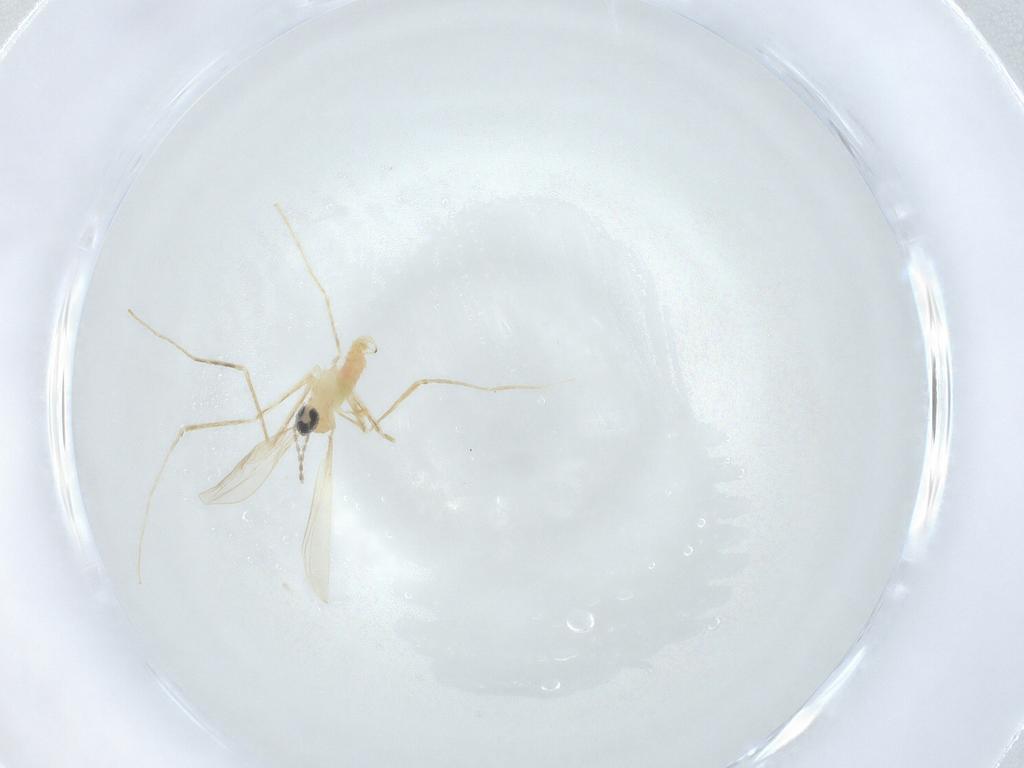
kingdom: Animalia
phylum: Arthropoda
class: Insecta
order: Diptera
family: Cecidomyiidae
